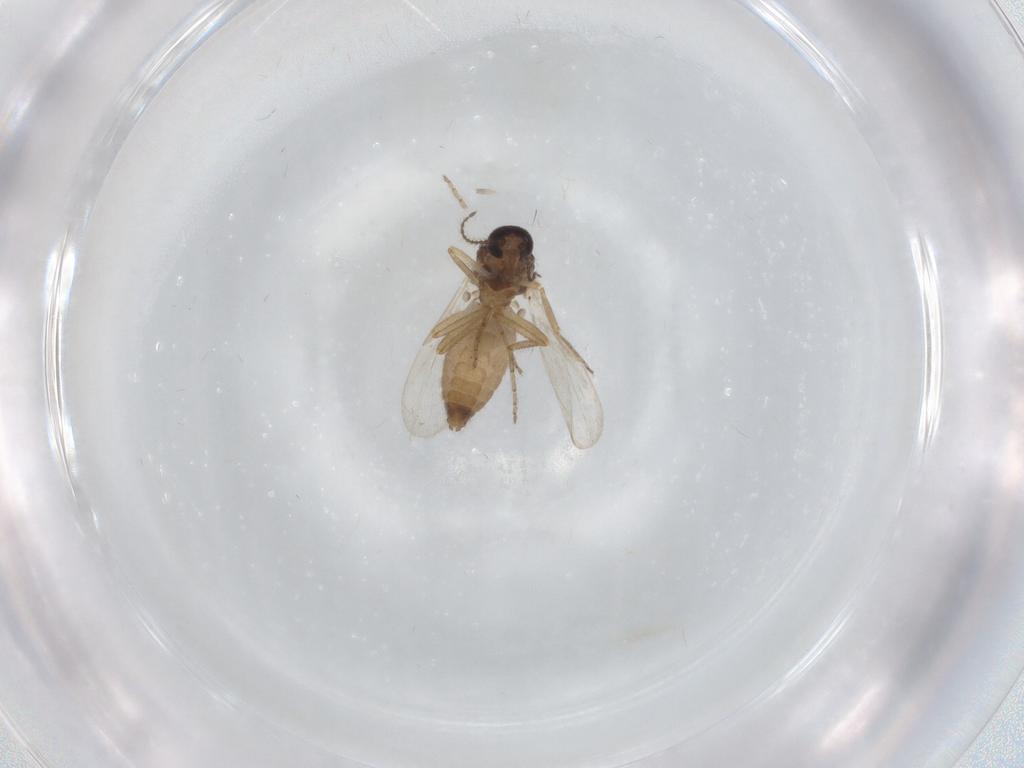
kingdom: Animalia
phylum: Arthropoda
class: Insecta
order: Diptera
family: Ceratopogonidae
